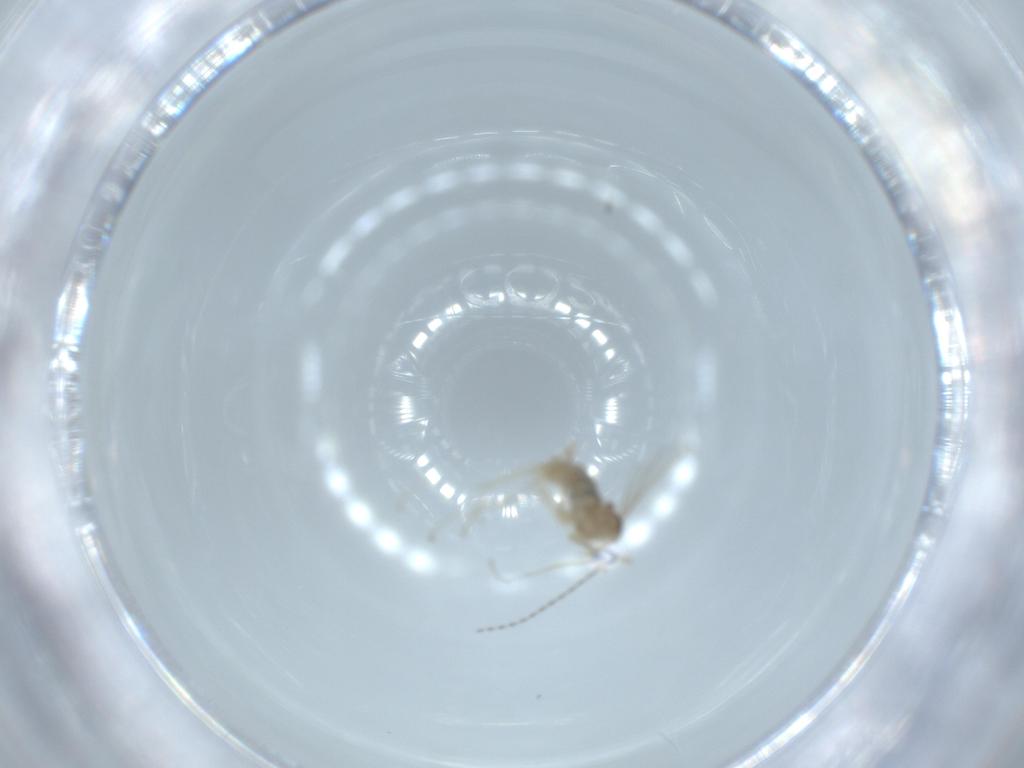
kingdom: Animalia
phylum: Arthropoda
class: Insecta
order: Diptera
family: Cecidomyiidae
